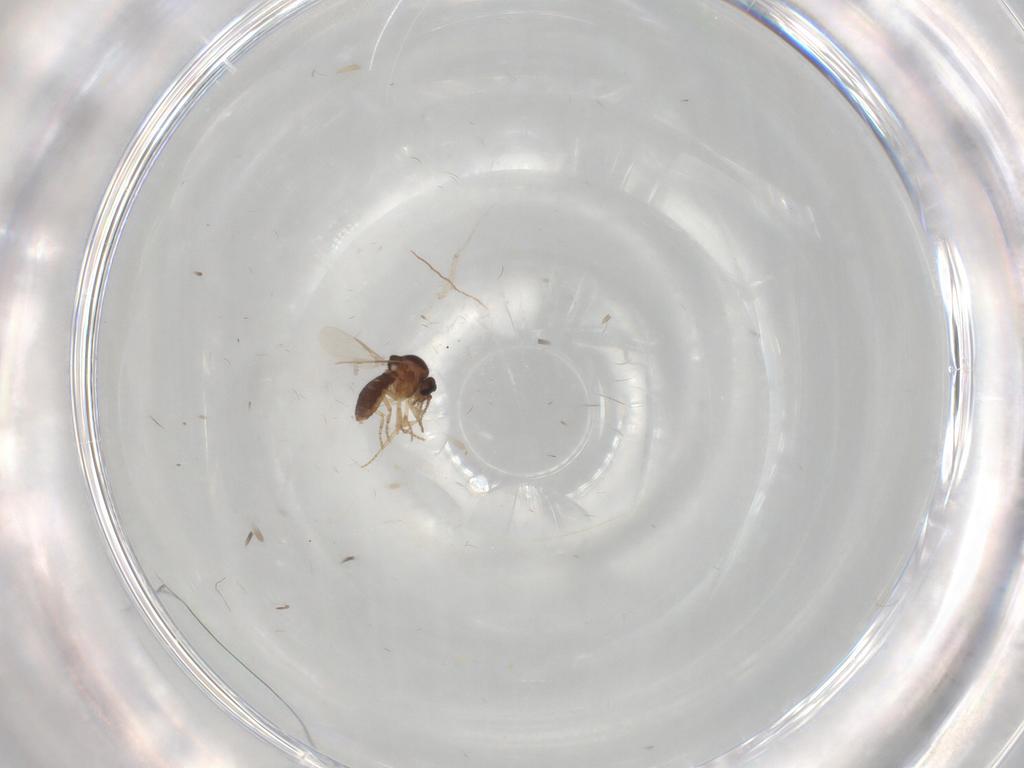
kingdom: Animalia
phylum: Arthropoda
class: Insecta
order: Diptera
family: Ceratopogonidae
